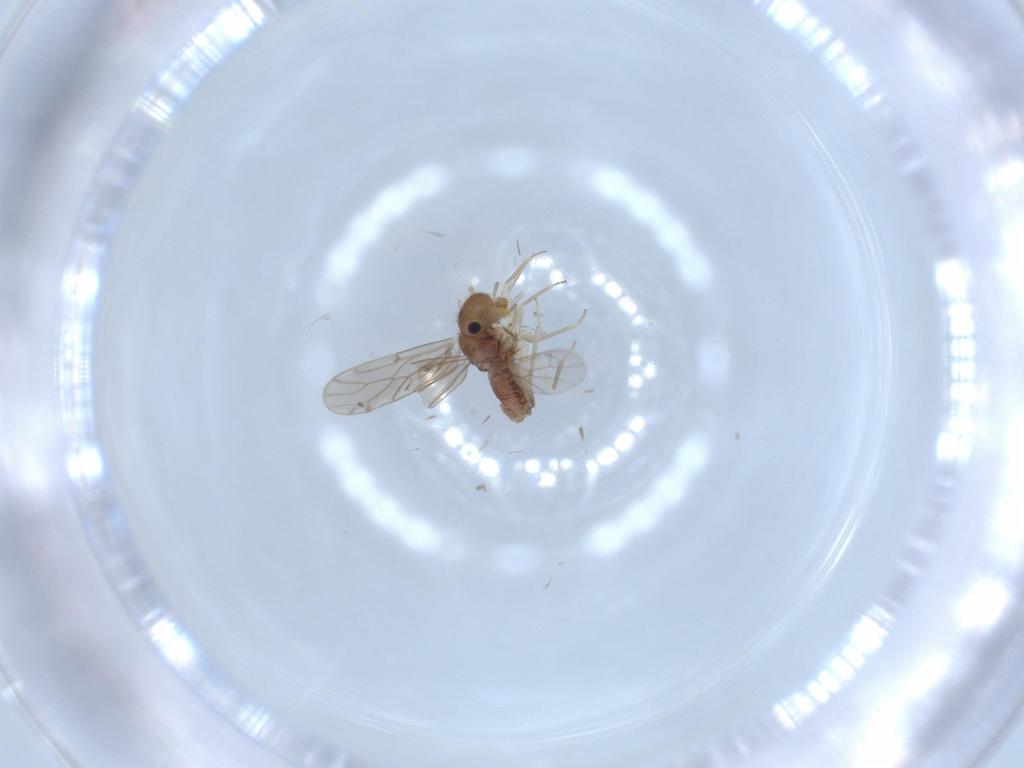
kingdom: Animalia
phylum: Arthropoda
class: Insecta
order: Psocodea
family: Ectopsocidae
